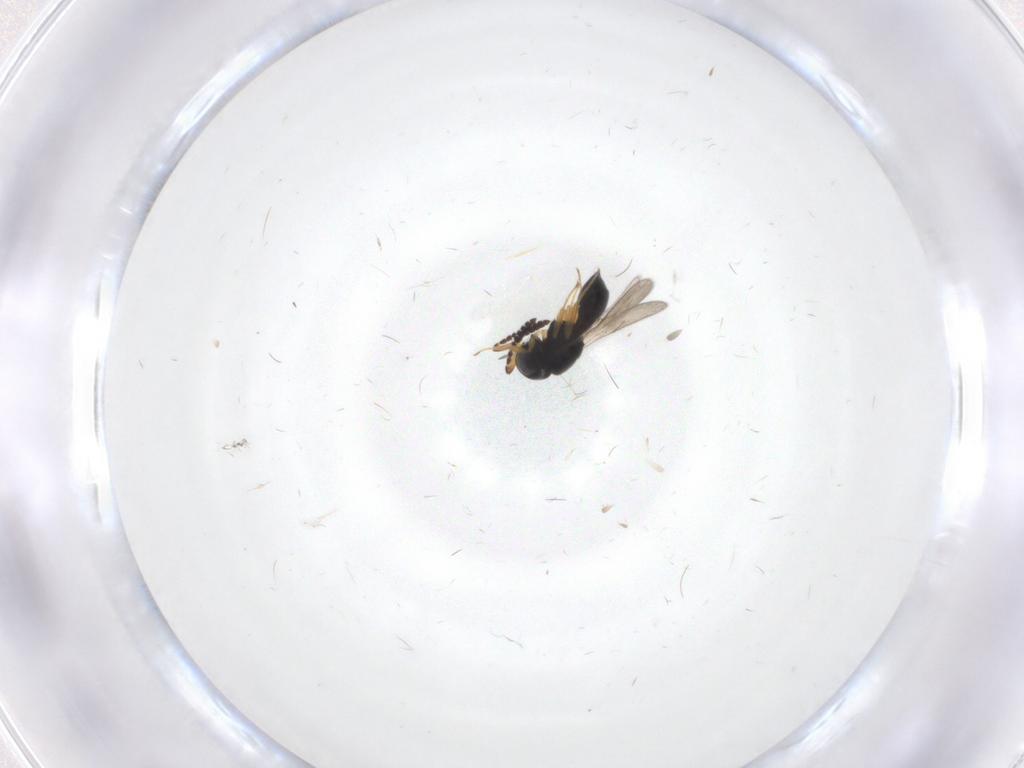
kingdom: Animalia
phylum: Arthropoda
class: Insecta
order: Hymenoptera
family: Scelionidae
